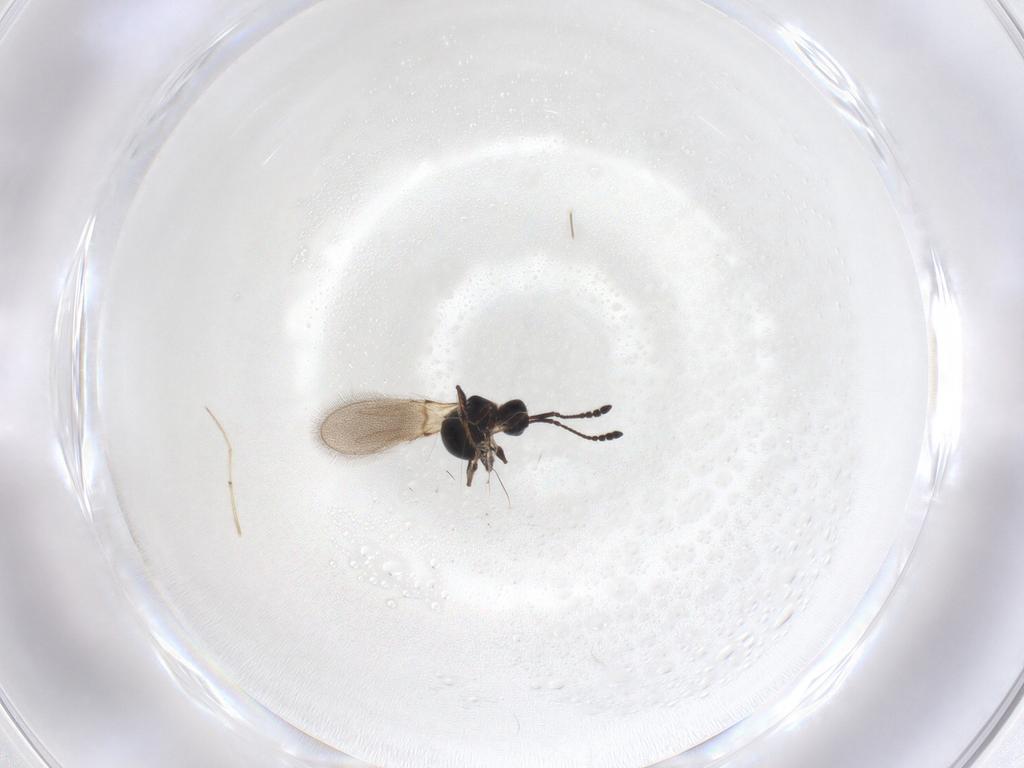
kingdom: Animalia
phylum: Arthropoda
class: Insecta
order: Hymenoptera
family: Diapriidae
